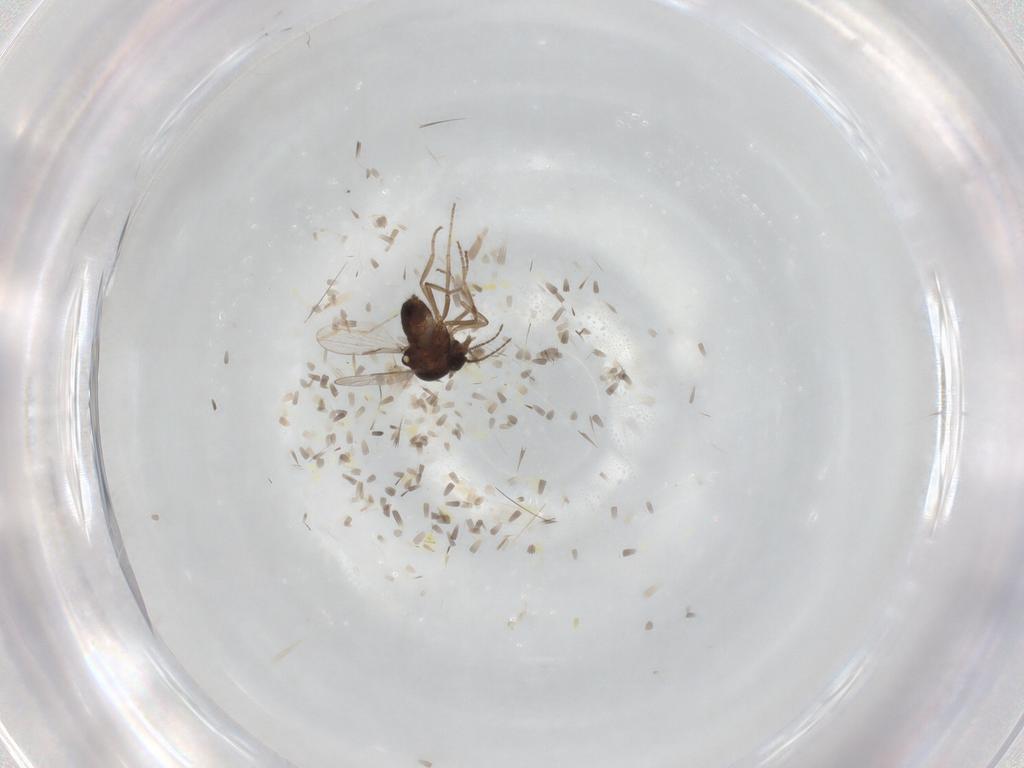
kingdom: Animalia
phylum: Arthropoda
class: Insecta
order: Diptera
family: Ceratopogonidae
